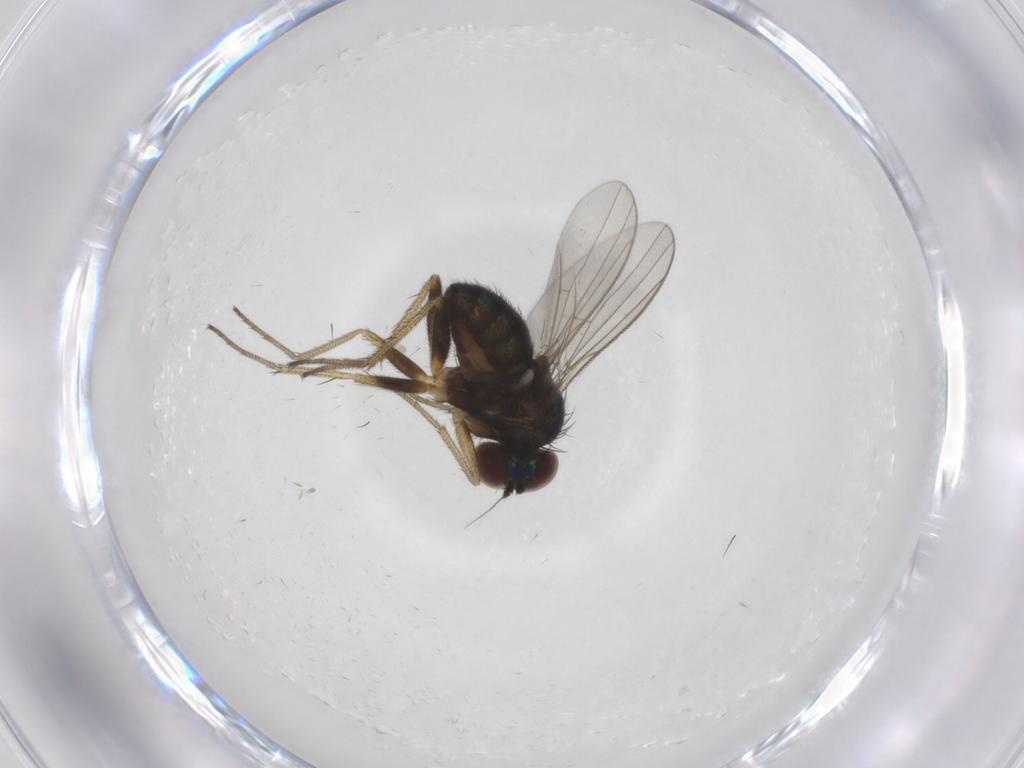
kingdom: Animalia
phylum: Arthropoda
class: Insecta
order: Diptera
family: Dolichopodidae
